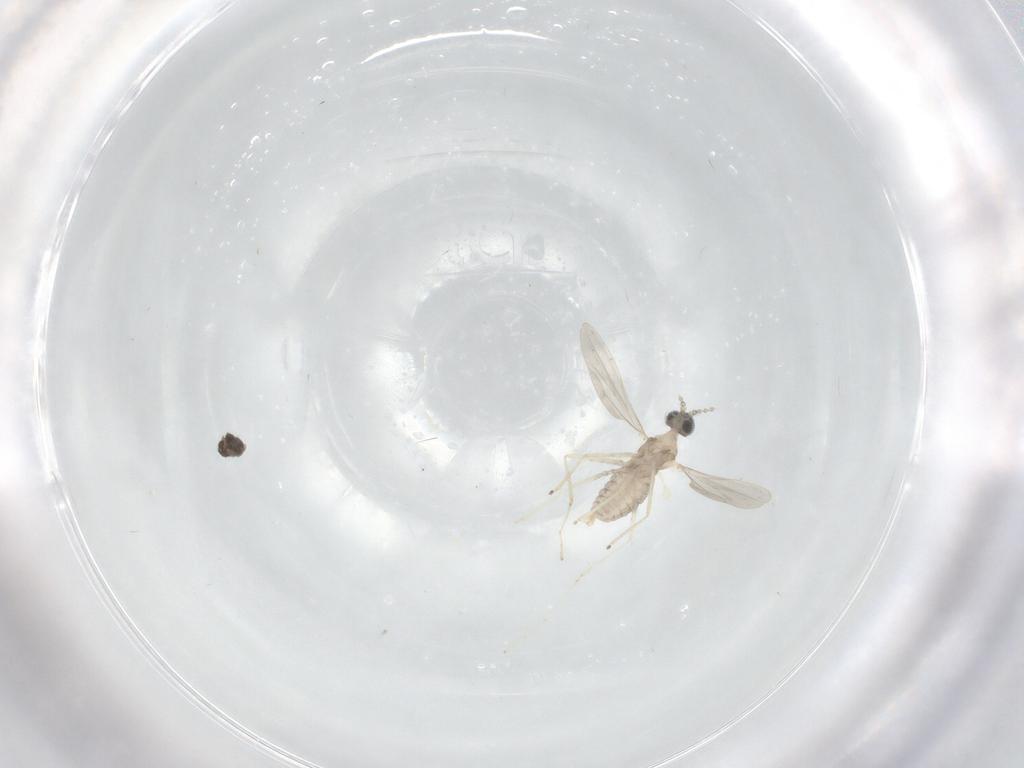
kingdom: Animalia
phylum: Arthropoda
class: Insecta
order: Diptera
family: Cecidomyiidae
